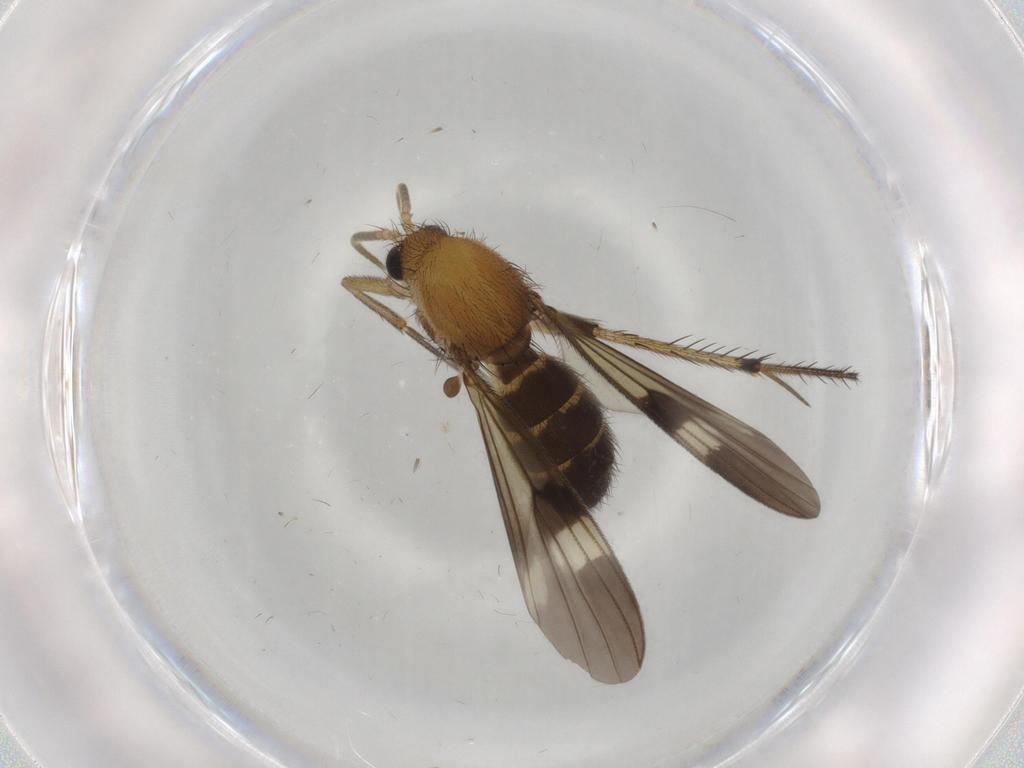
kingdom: Animalia
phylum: Arthropoda
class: Insecta
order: Diptera
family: Mycetophilidae
